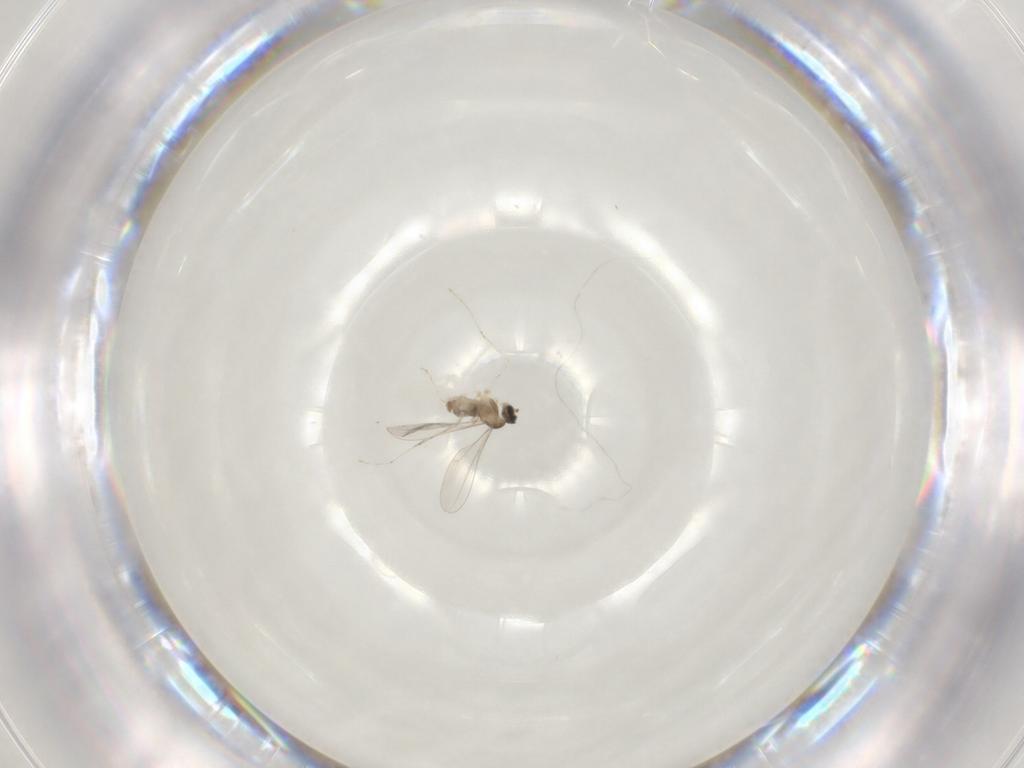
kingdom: Animalia
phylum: Arthropoda
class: Insecta
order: Diptera
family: Cecidomyiidae
